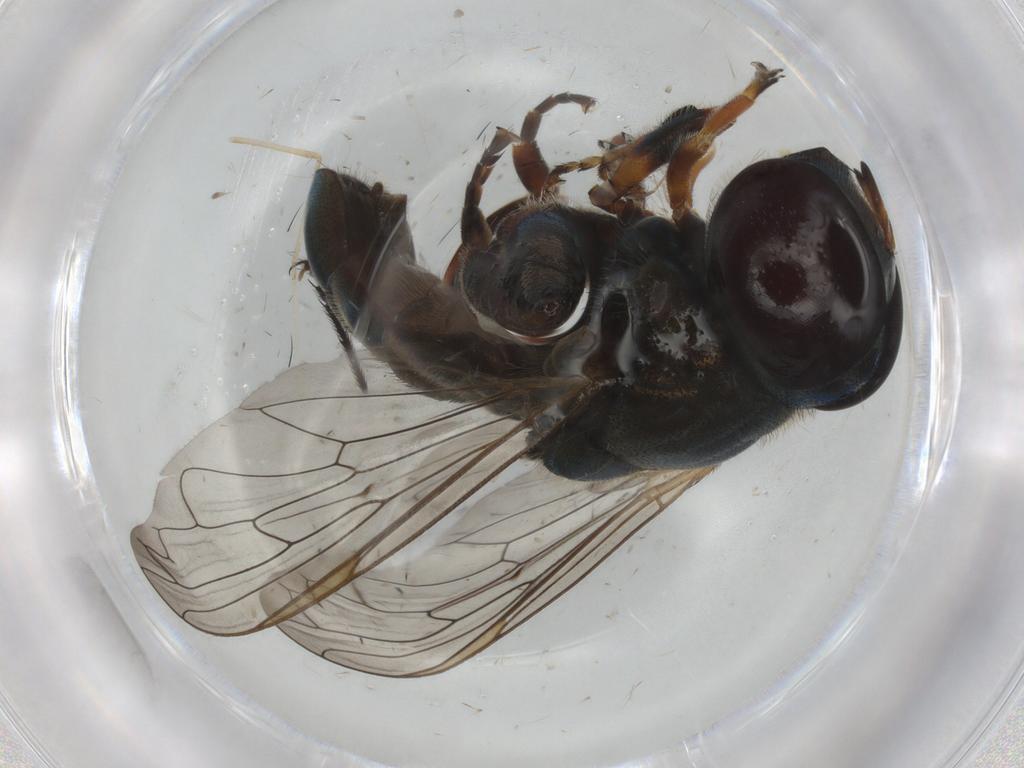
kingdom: Animalia
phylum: Arthropoda
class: Insecta
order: Diptera
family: Syrphidae
